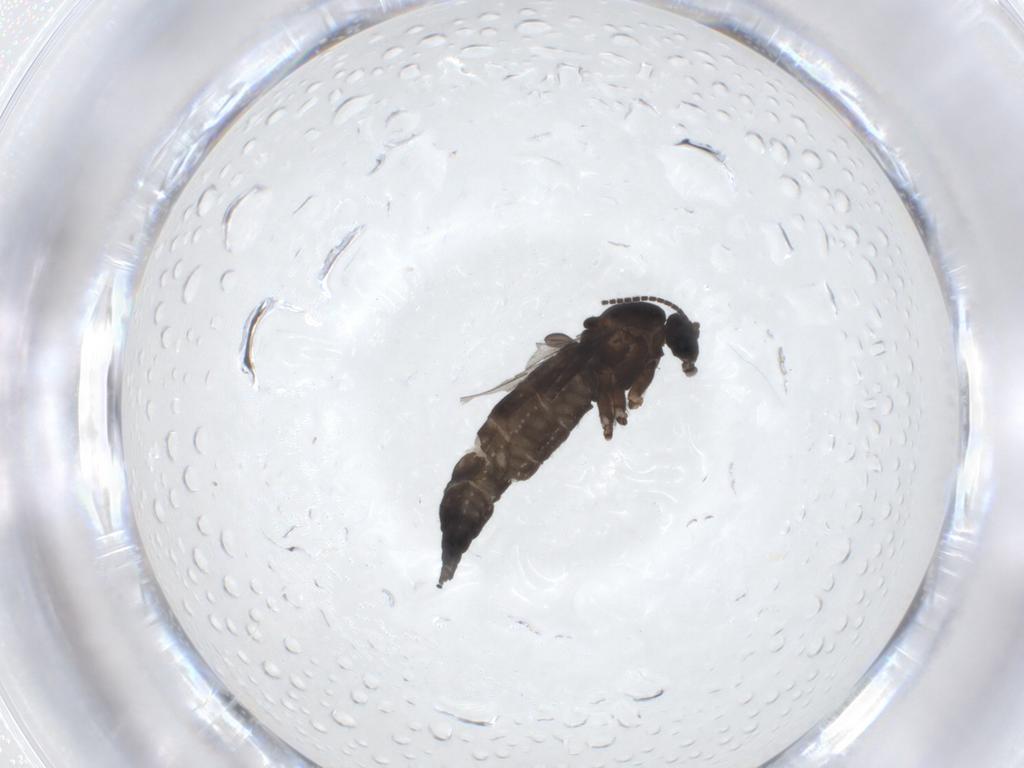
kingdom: Animalia
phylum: Arthropoda
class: Insecta
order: Diptera
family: Sciaridae
